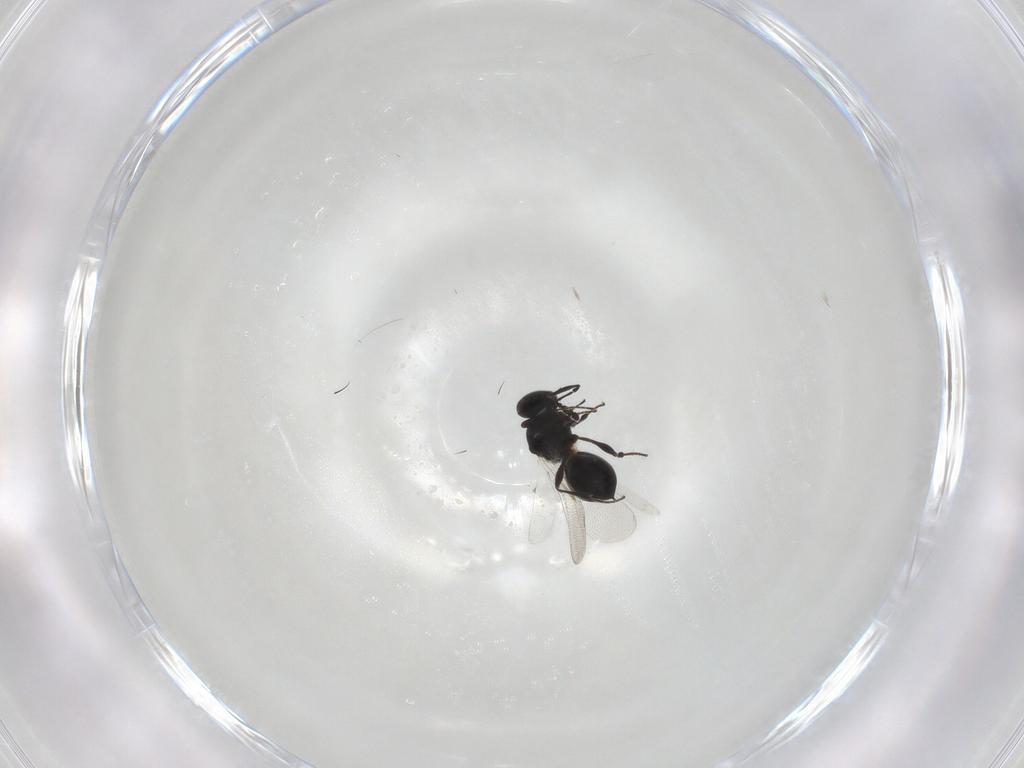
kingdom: Animalia
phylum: Arthropoda
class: Insecta
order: Hymenoptera
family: Platygastridae
